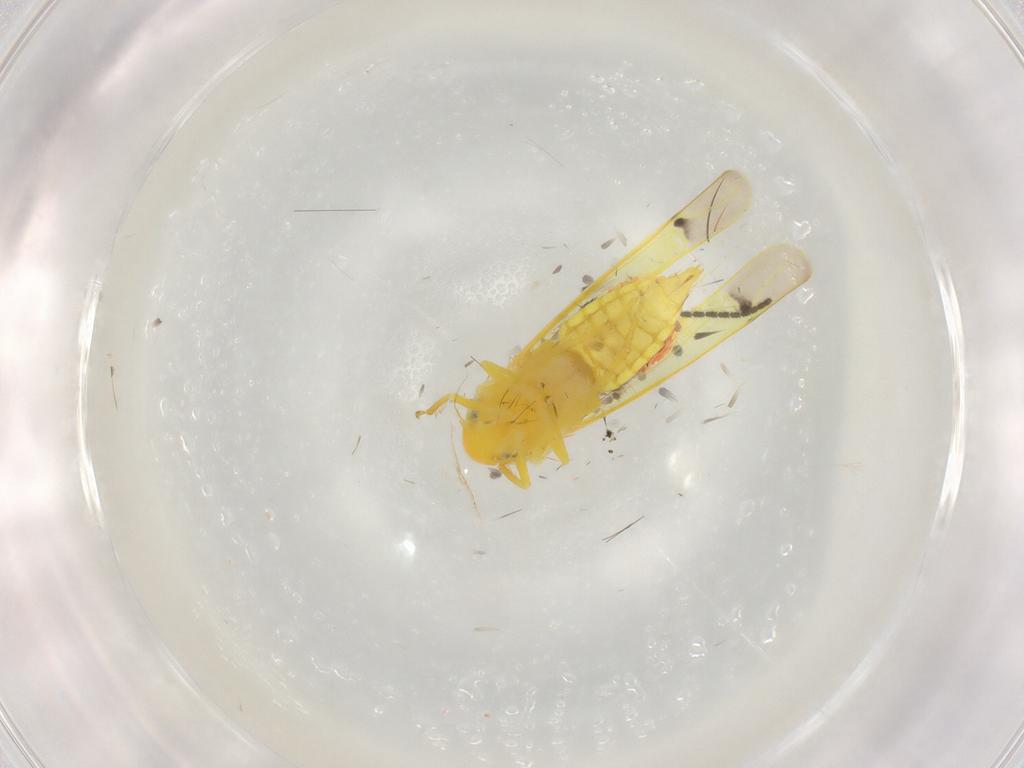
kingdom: Animalia
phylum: Arthropoda
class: Insecta
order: Hemiptera
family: Cicadellidae
